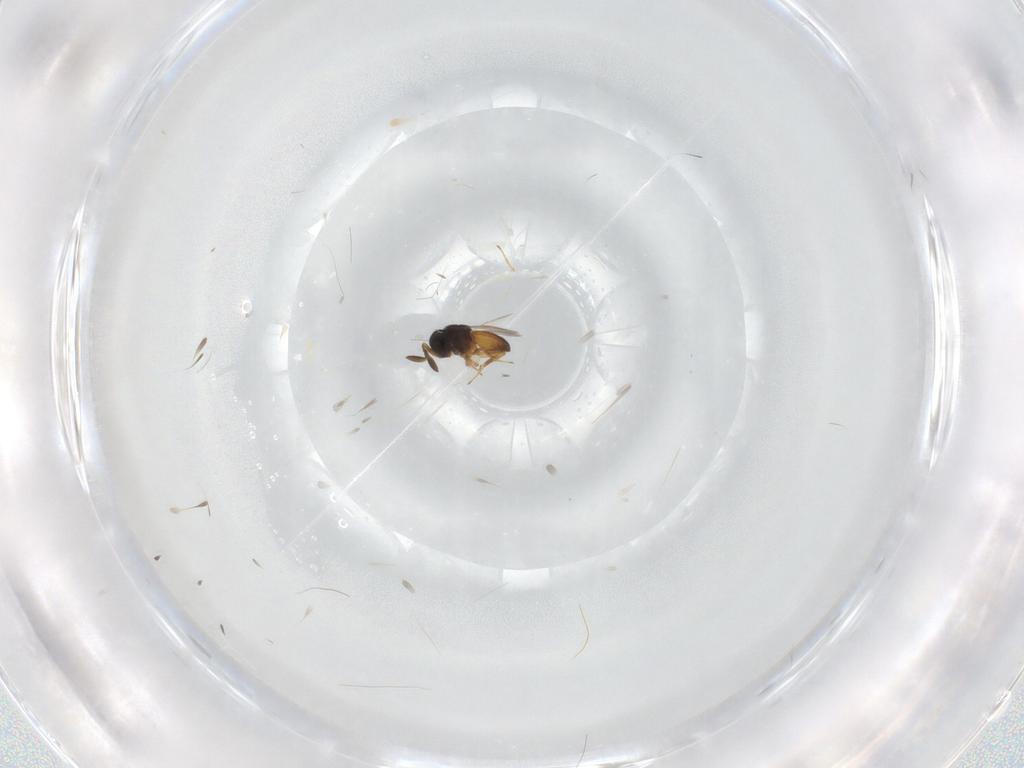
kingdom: Animalia
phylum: Arthropoda
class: Insecta
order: Hymenoptera
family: Scelionidae
